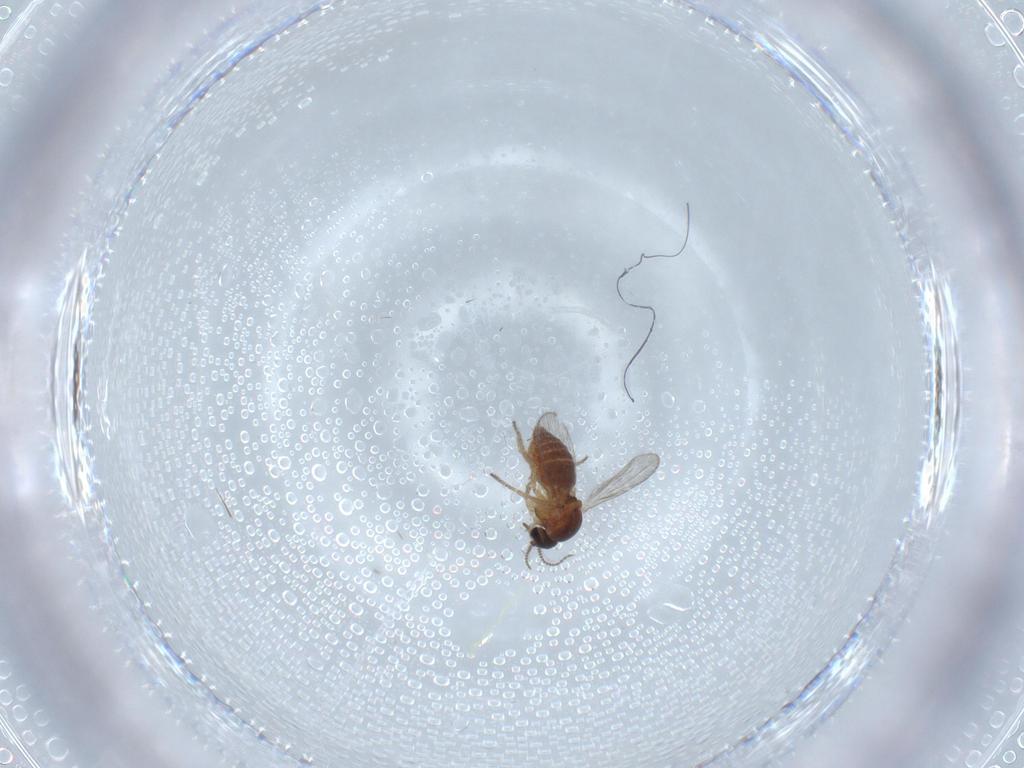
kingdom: Animalia
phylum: Arthropoda
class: Insecta
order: Diptera
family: Ceratopogonidae
